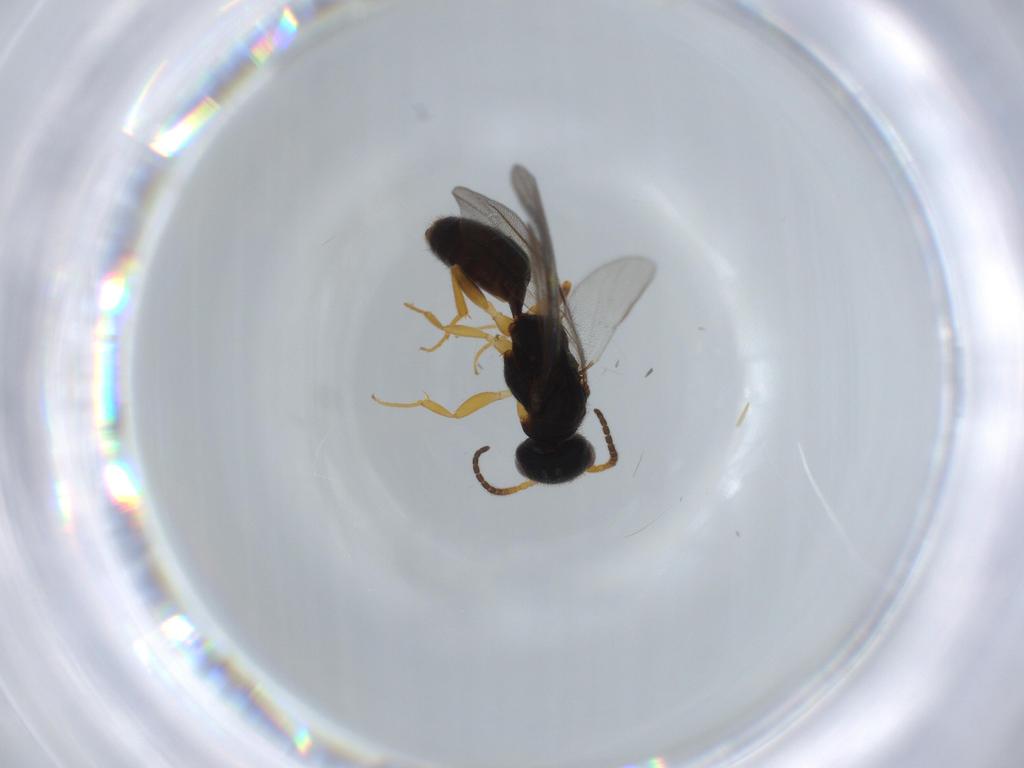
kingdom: Animalia
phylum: Arthropoda
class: Insecta
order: Hymenoptera
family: Bethylidae
